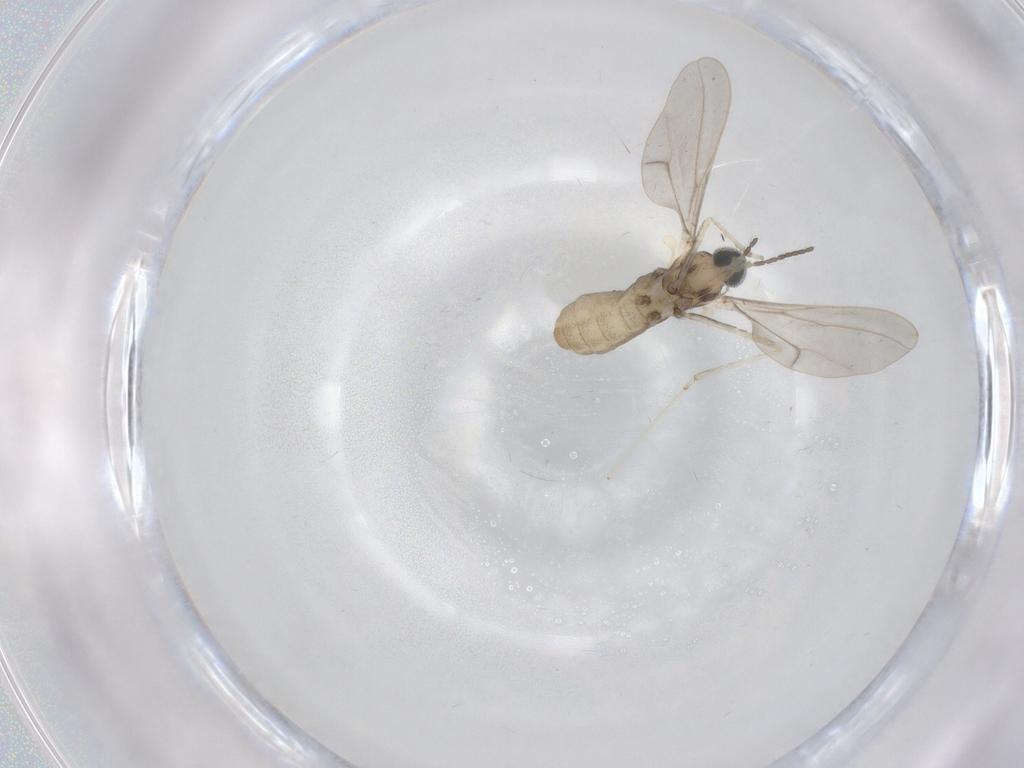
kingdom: Animalia
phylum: Arthropoda
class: Insecta
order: Diptera
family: Cecidomyiidae
